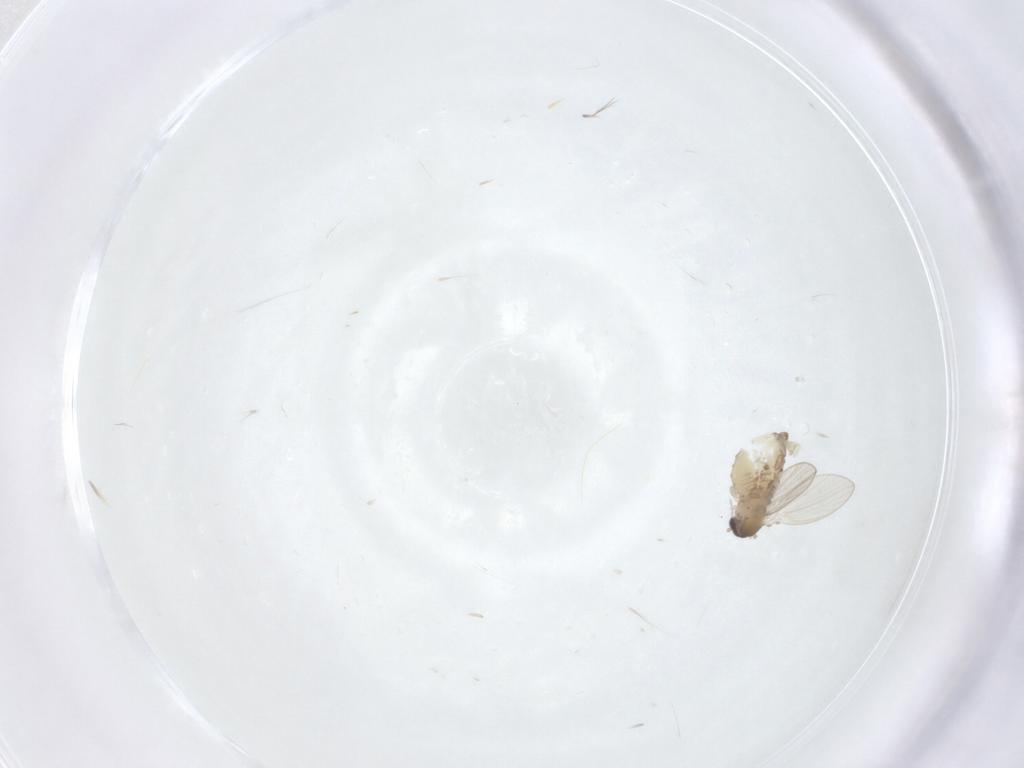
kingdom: Animalia
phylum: Arthropoda
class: Insecta
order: Diptera
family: Psychodidae
